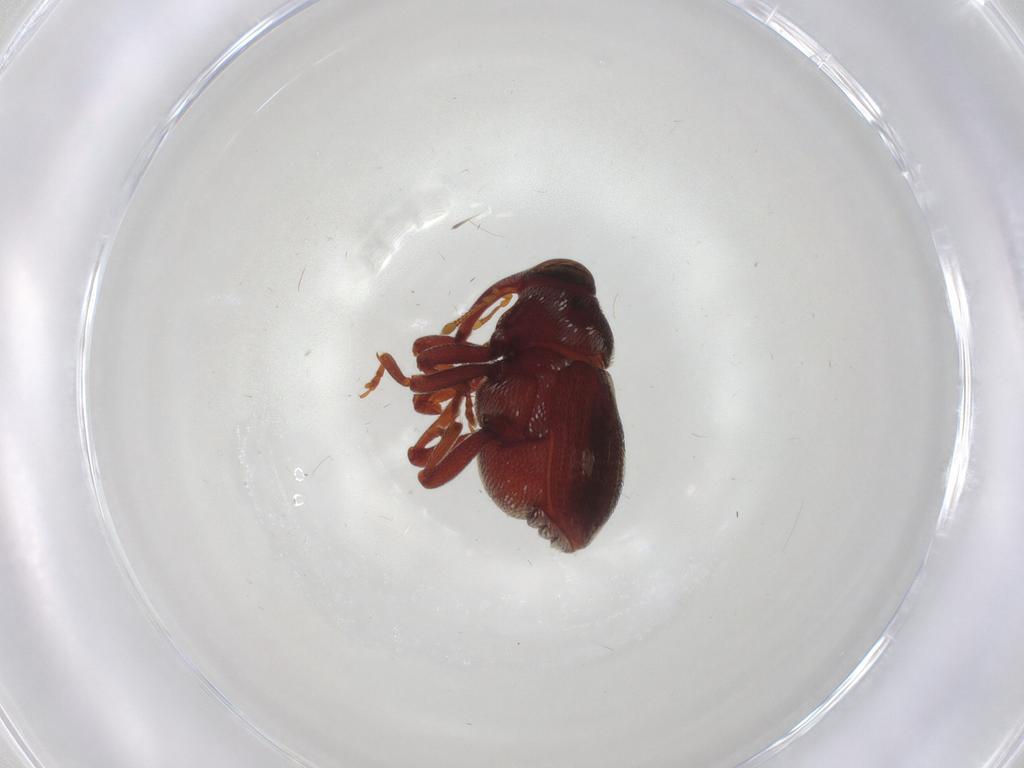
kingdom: Animalia
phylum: Arthropoda
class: Insecta
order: Coleoptera
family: Curculionidae
